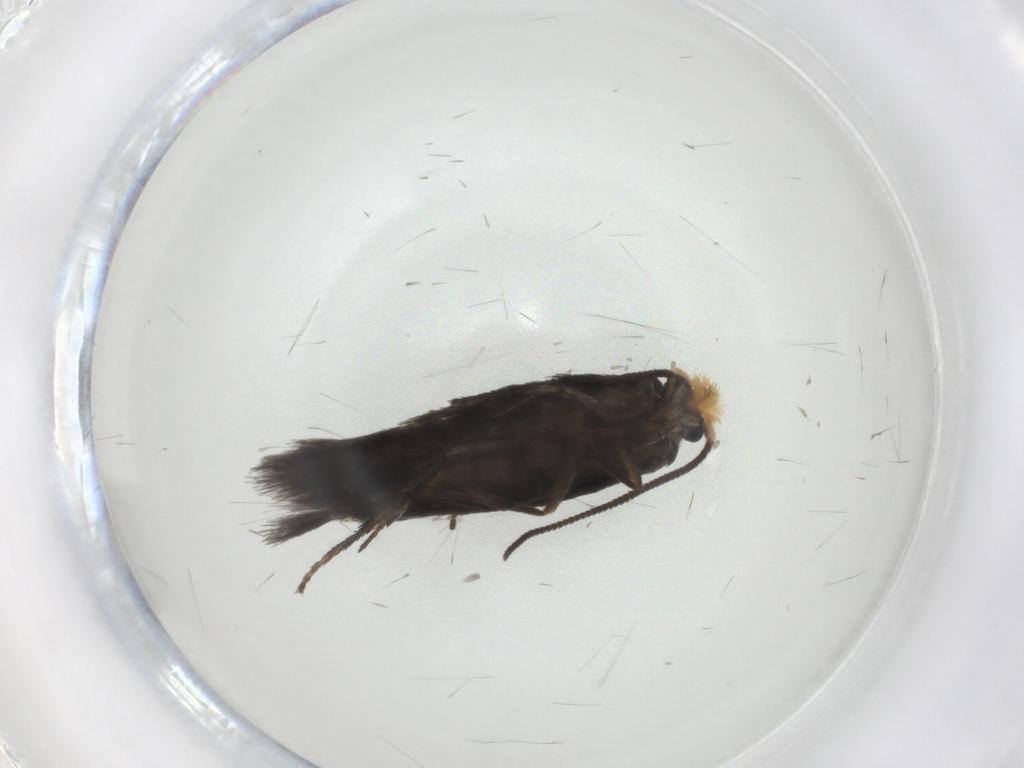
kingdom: Animalia
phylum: Arthropoda
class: Insecta
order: Lepidoptera
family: Nepticulidae
